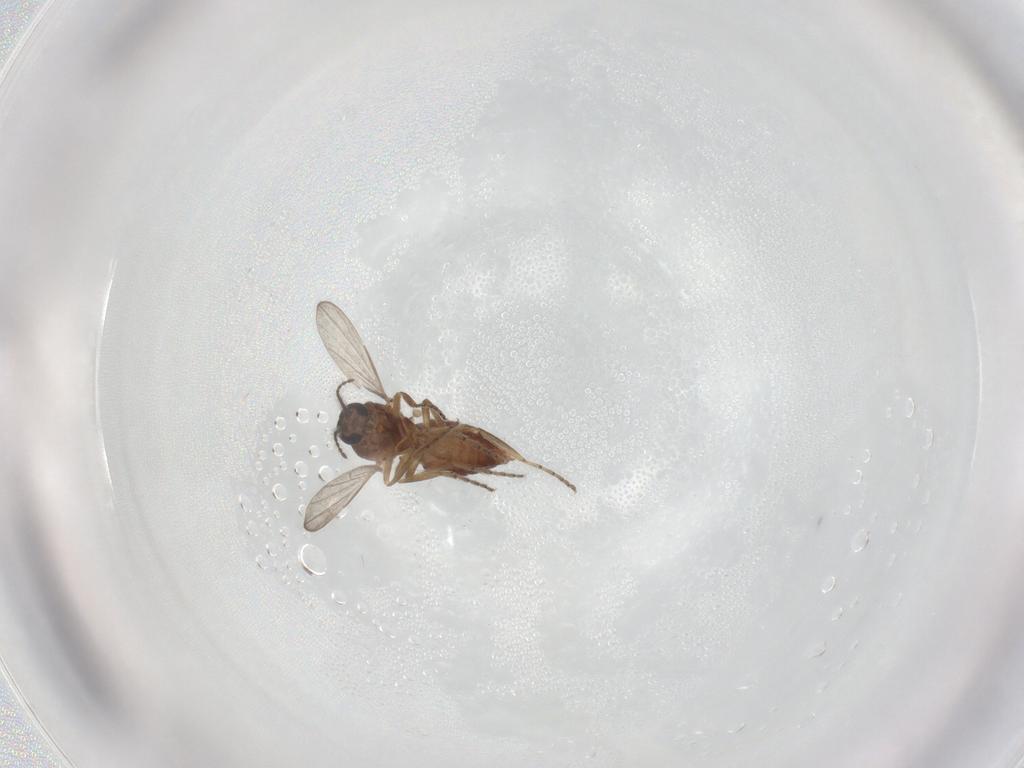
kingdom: Animalia
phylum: Arthropoda
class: Insecta
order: Diptera
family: Ceratopogonidae
